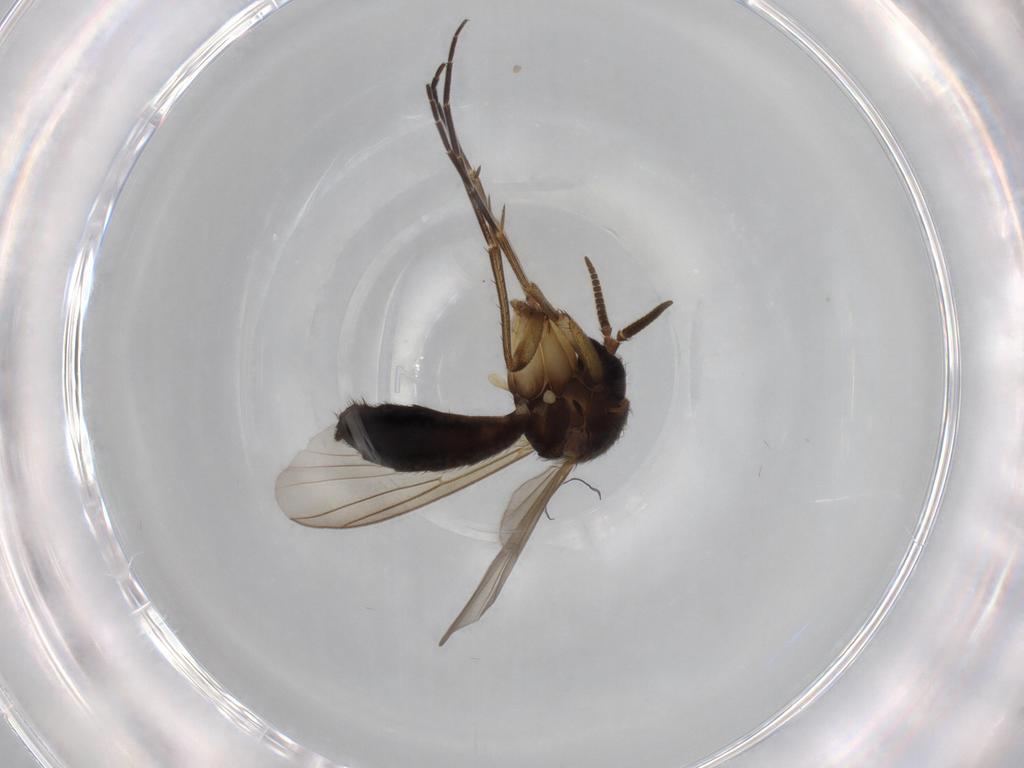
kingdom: Animalia
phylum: Arthropoda
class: Insecta
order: Diptera
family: Mycetophilidae
